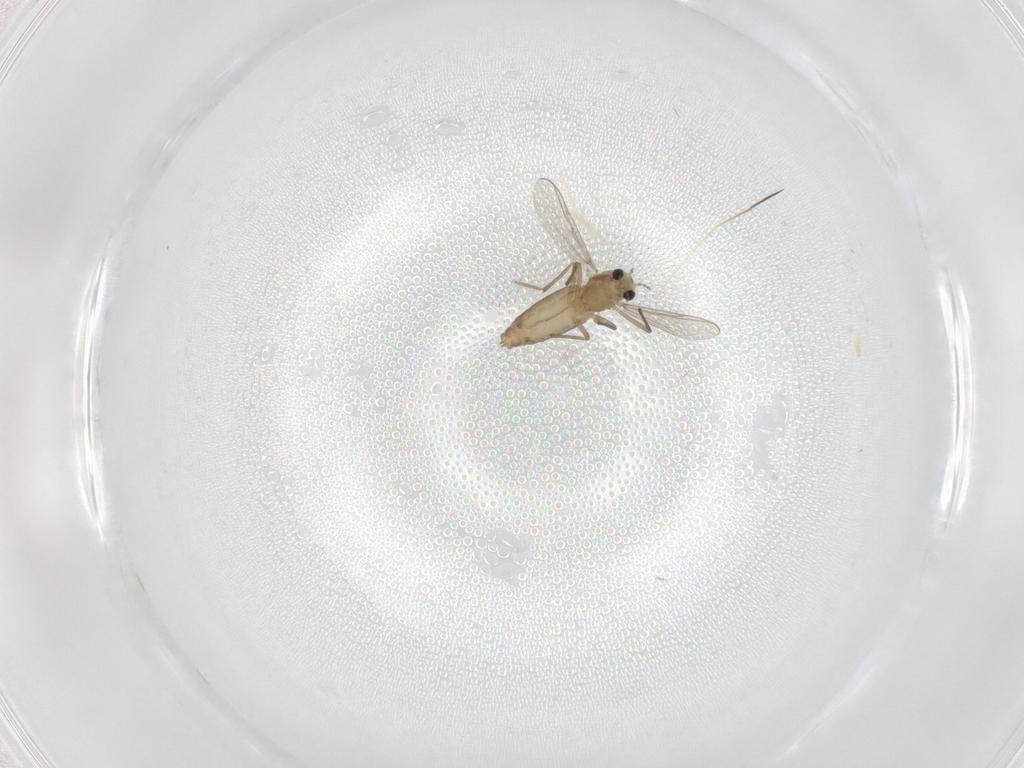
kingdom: Animalia
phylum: Arthropoda
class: Insecta
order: Diptera
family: Chironomidae
